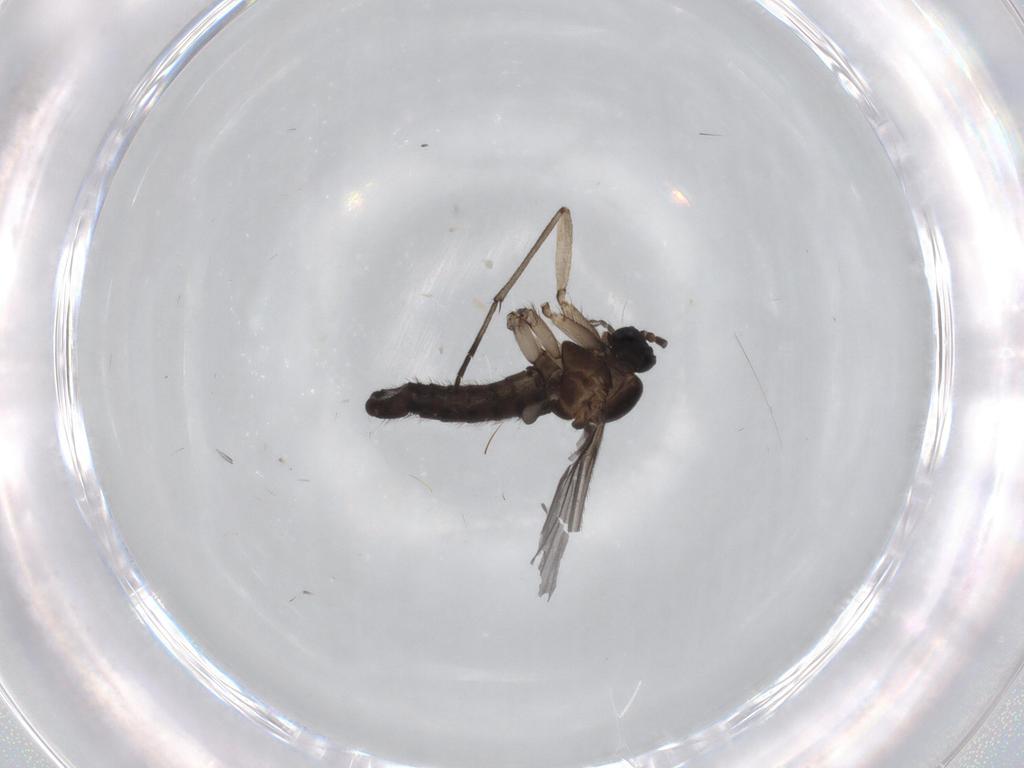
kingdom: Animalia
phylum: Arthropoda
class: Insecta
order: Diptera
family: Sciaridae
